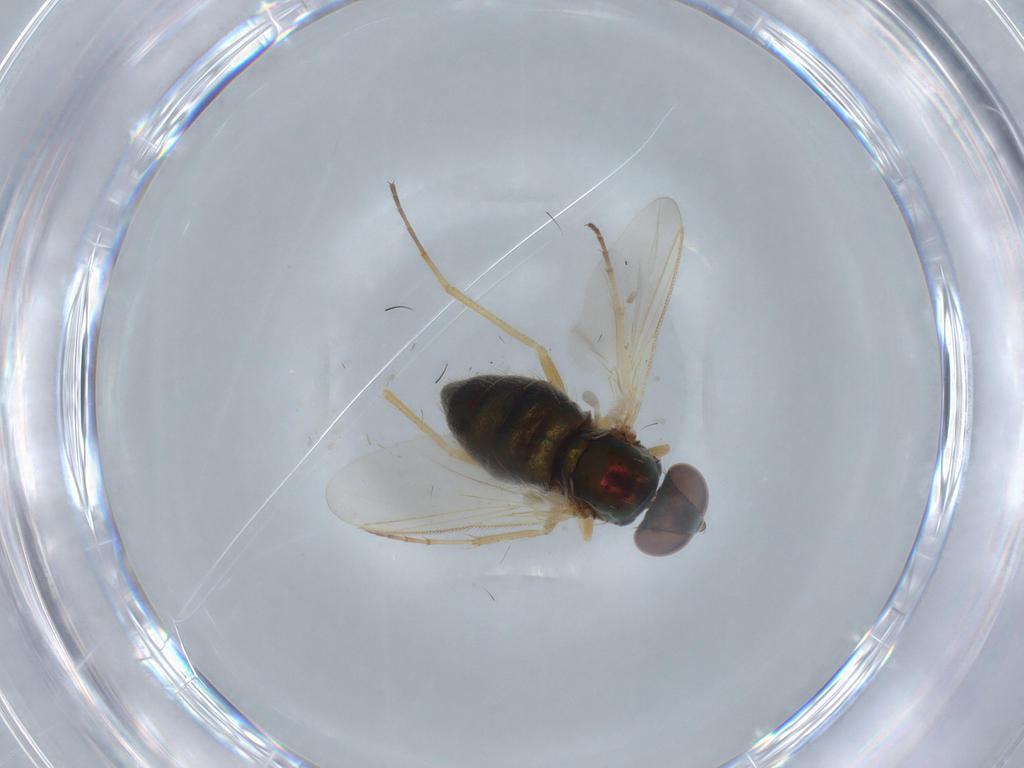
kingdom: Animalia
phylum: Arthropoda
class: Insecta
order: Diptera
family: Dolichopodidae
